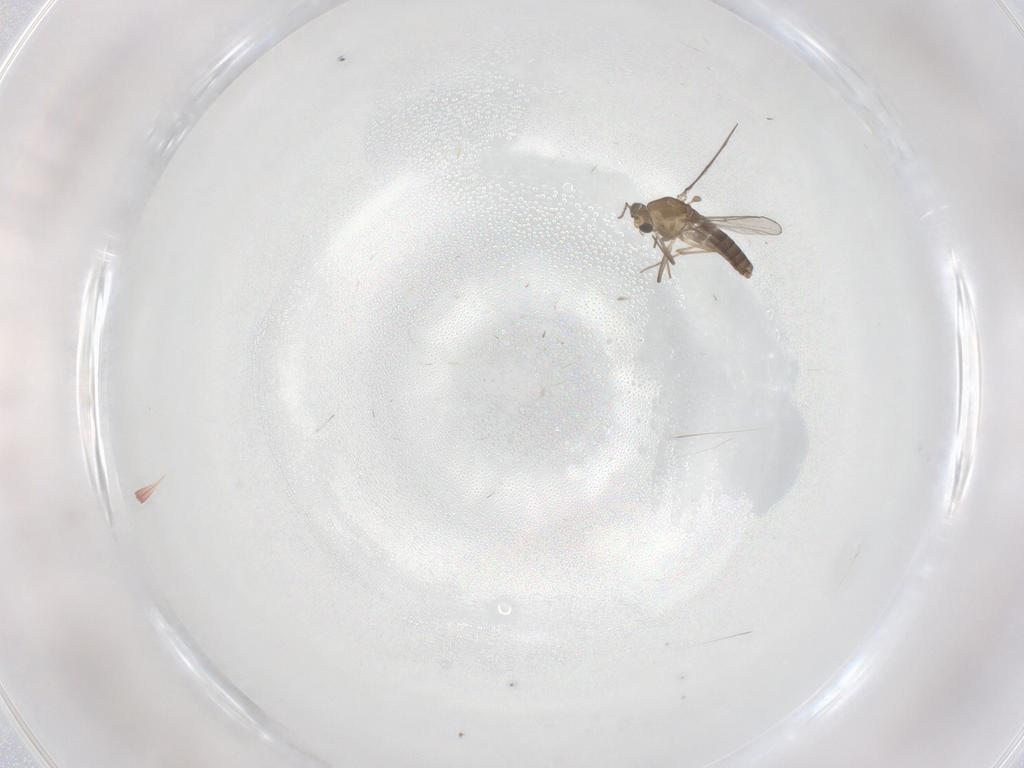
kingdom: Animalia
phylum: Arthropoda
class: Insecta
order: Diptera
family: Chironomidae
